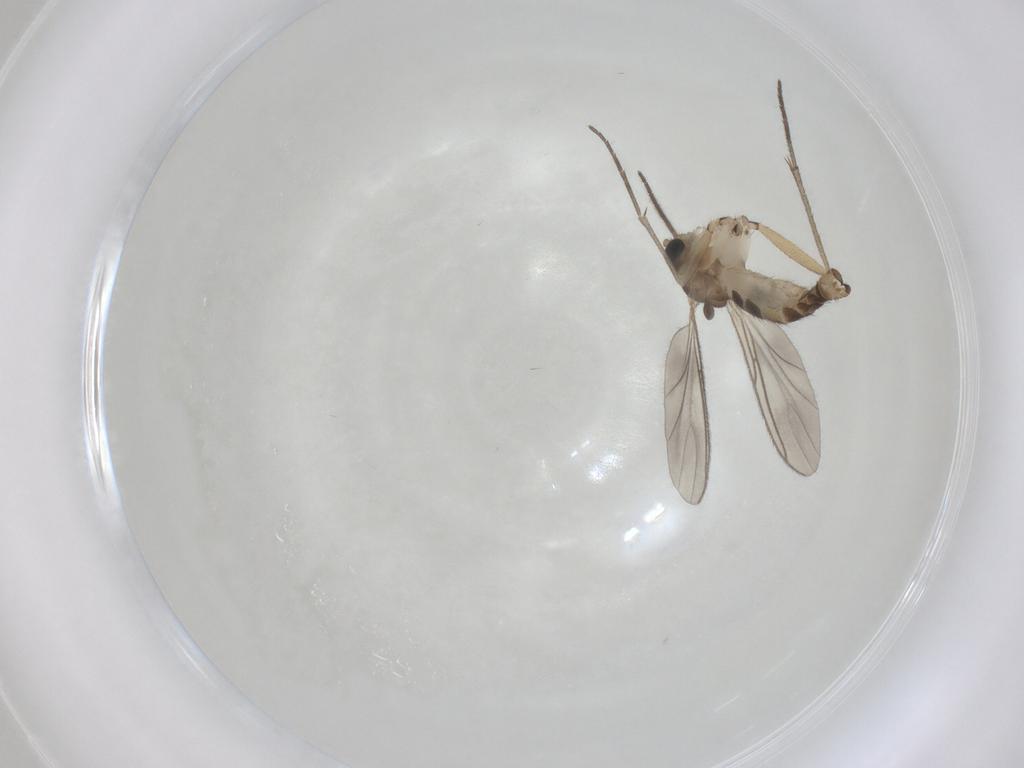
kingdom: Animalia
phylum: Arthropoda
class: Insecta
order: Diptera
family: Sciaridae
